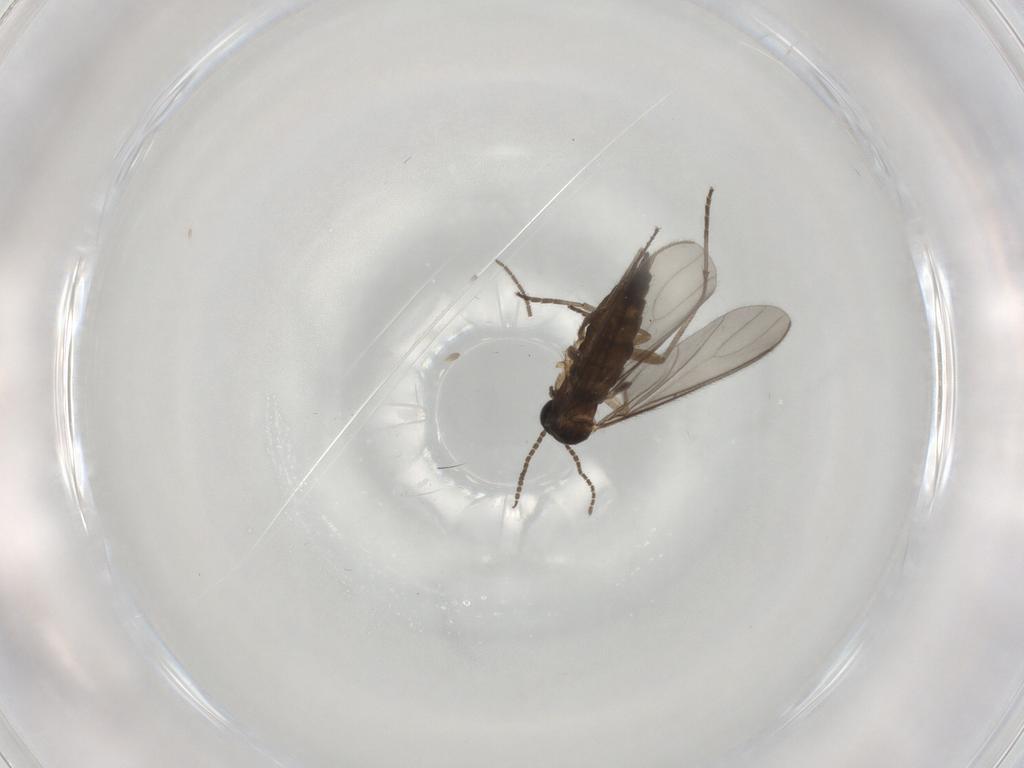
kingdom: Animalia
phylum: Arthropoda
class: Insecta
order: Diptera
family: Sciaridae
